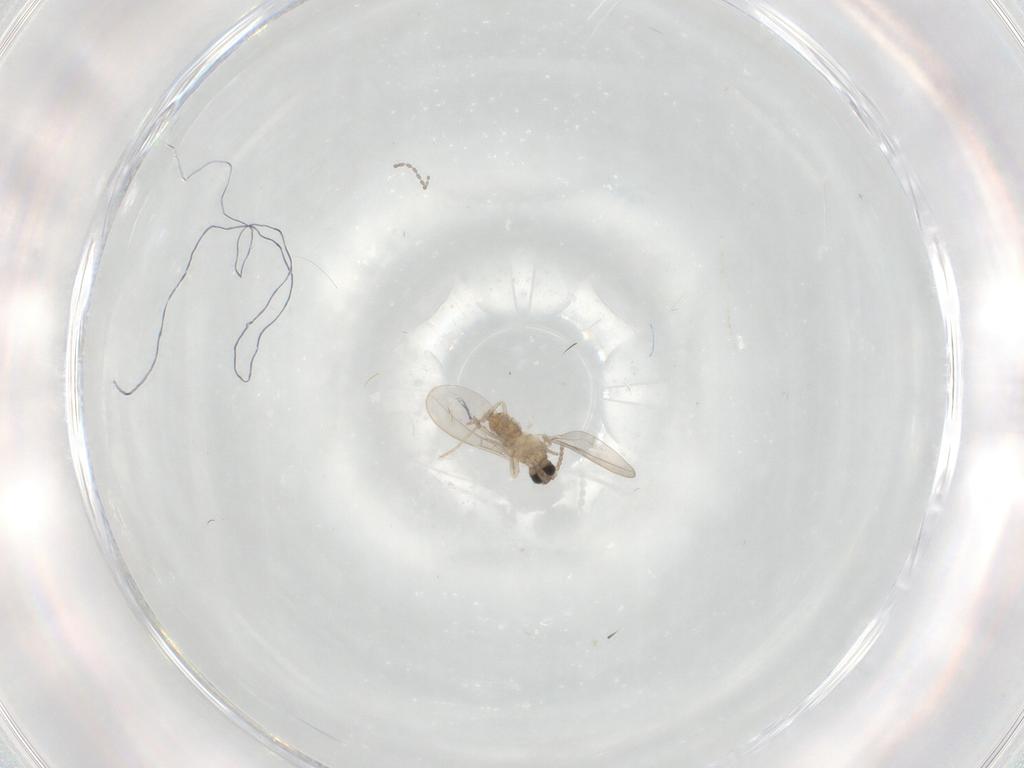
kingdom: Animalia
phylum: Arthropoda
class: Insecta
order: Diptera
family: Cecidomyiidae
